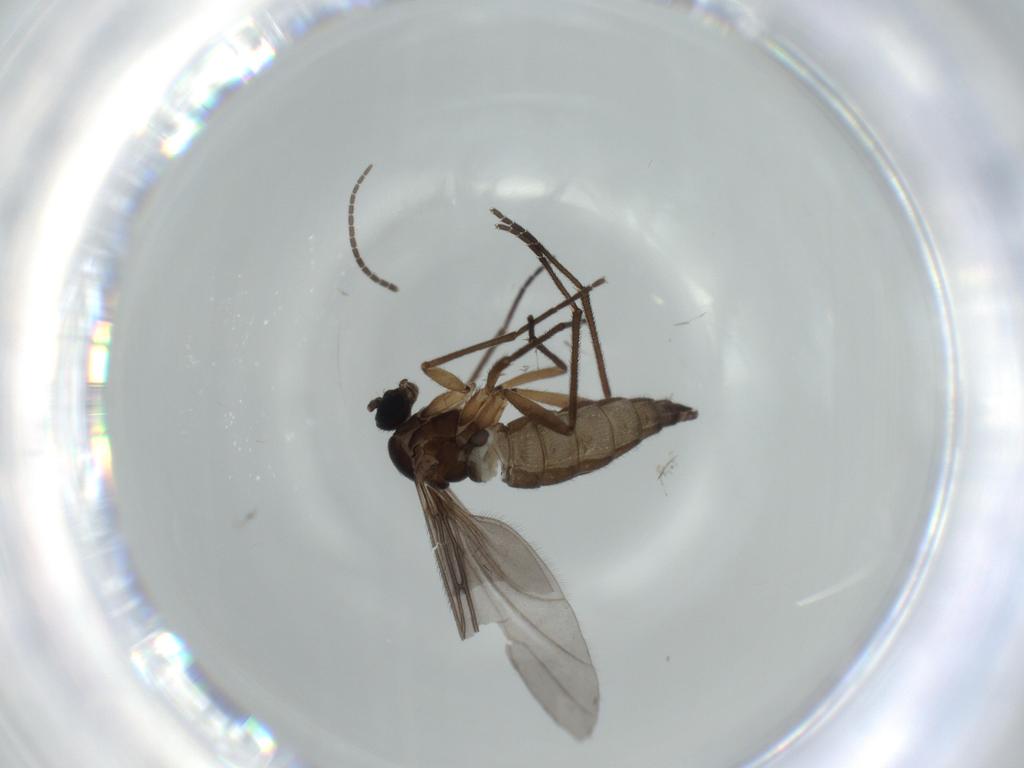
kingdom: Animalia
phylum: Arthropoda
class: Insecta
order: Diptera
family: Sciaridae
